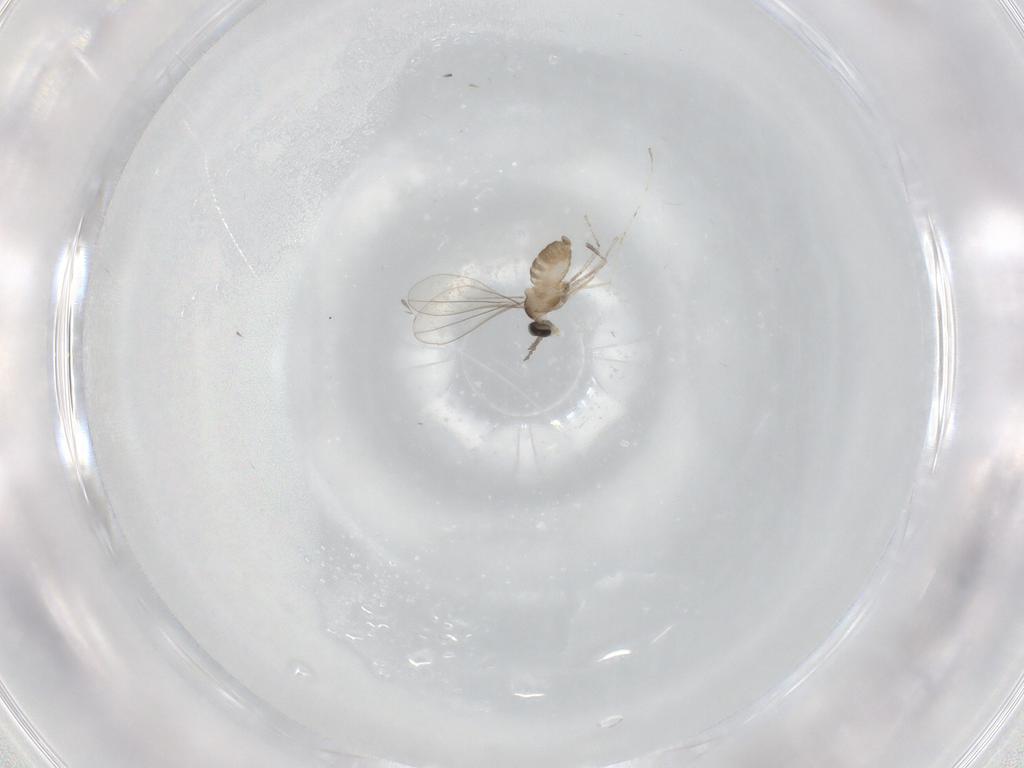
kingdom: Animalia
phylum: Arthropoda
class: Insecta
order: Diptera
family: Cecidomyiidae
